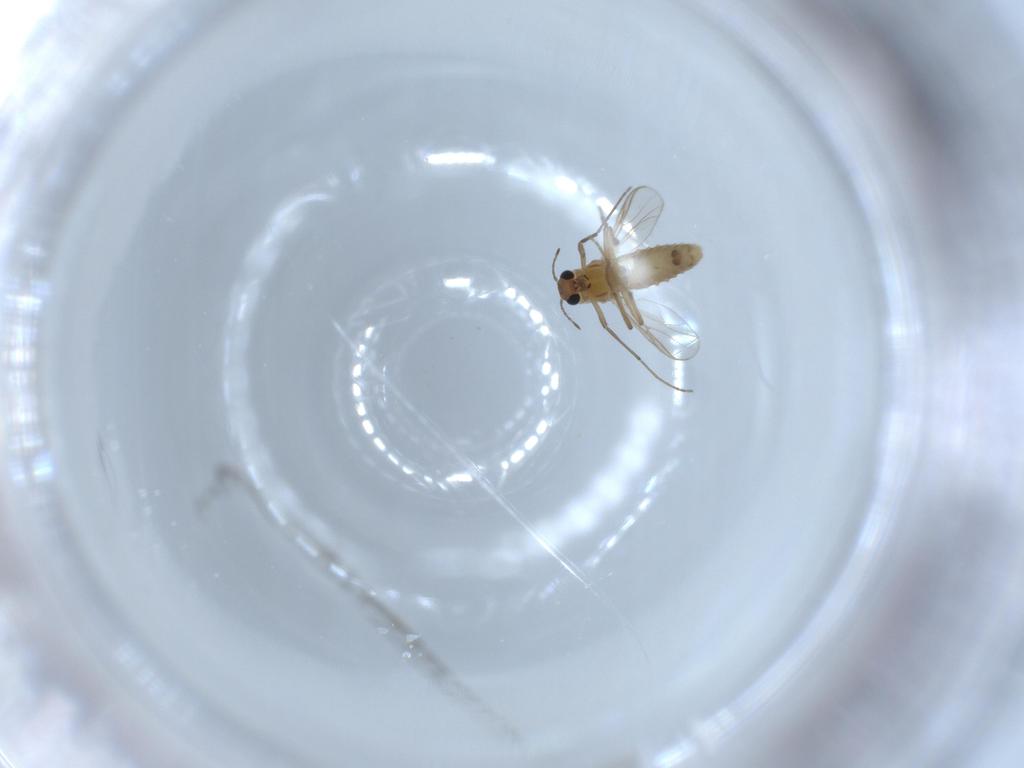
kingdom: Animalia
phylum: Arthropoda
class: Insecta
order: Diptera
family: Chironomidae
